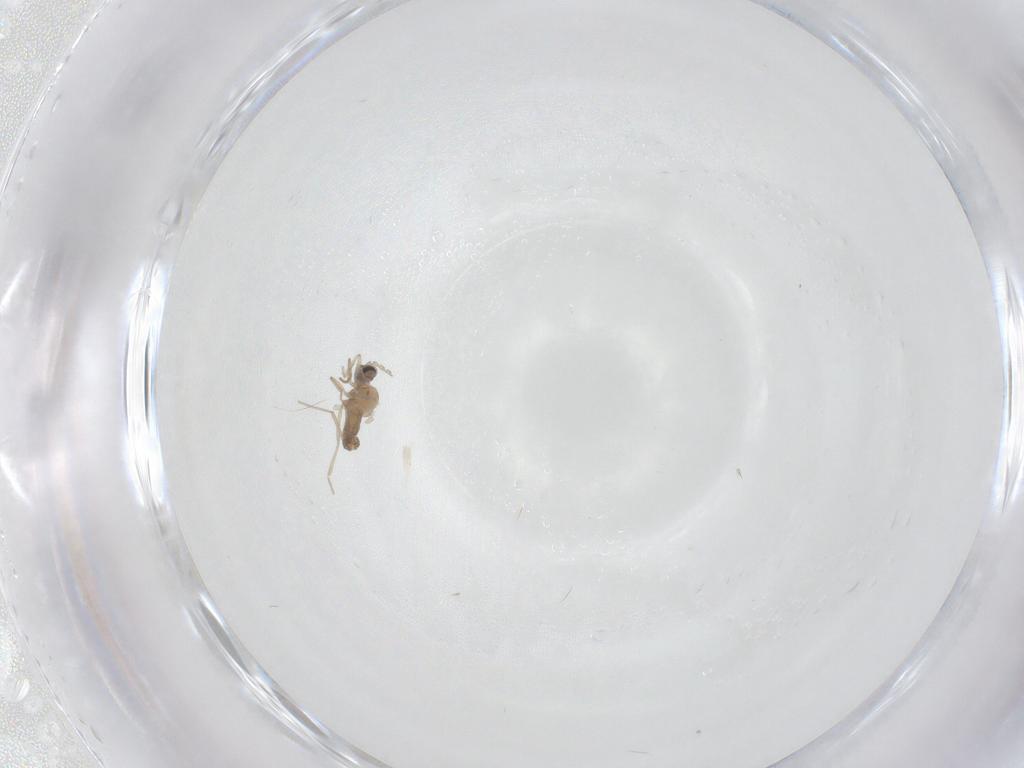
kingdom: Animalia
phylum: Arthropoda
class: Insecta
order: Diptera
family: Cecidomyiidae
